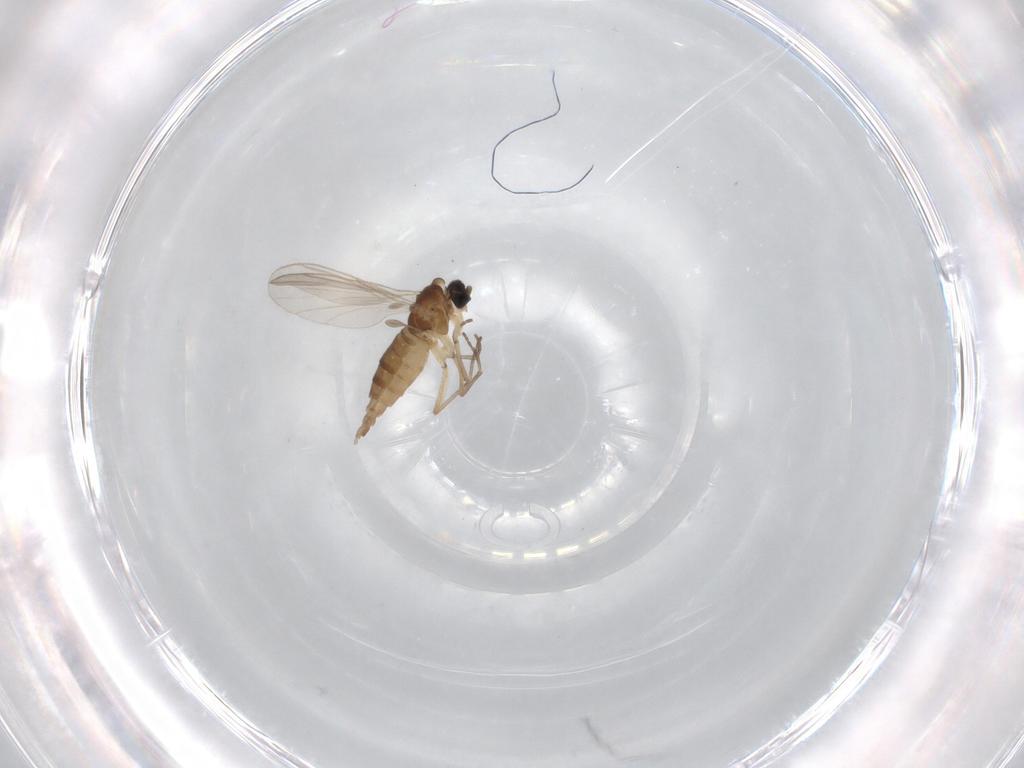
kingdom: Animalia
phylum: Arthropoda
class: Insecta
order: Diptera
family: Sciaridae
